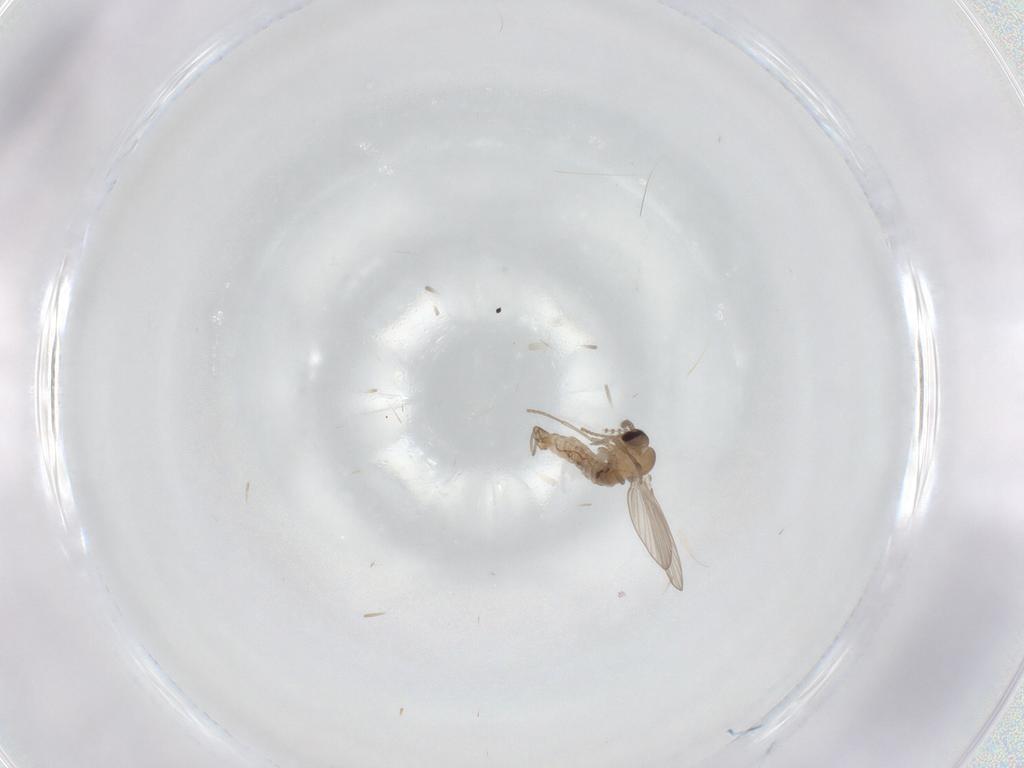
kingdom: Animalia
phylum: Arthropoda
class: Insecta
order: Diptera
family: Psychodidae
